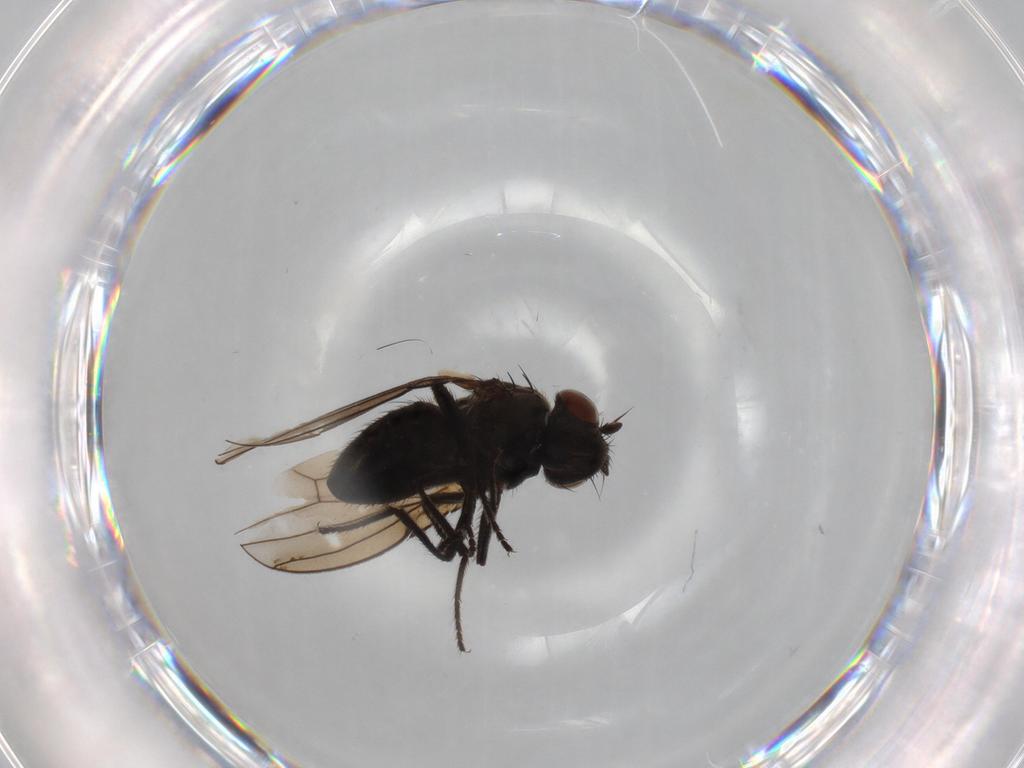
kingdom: Animalia
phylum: Arthropoda
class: Insecta
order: Diptera
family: Ephydridae
